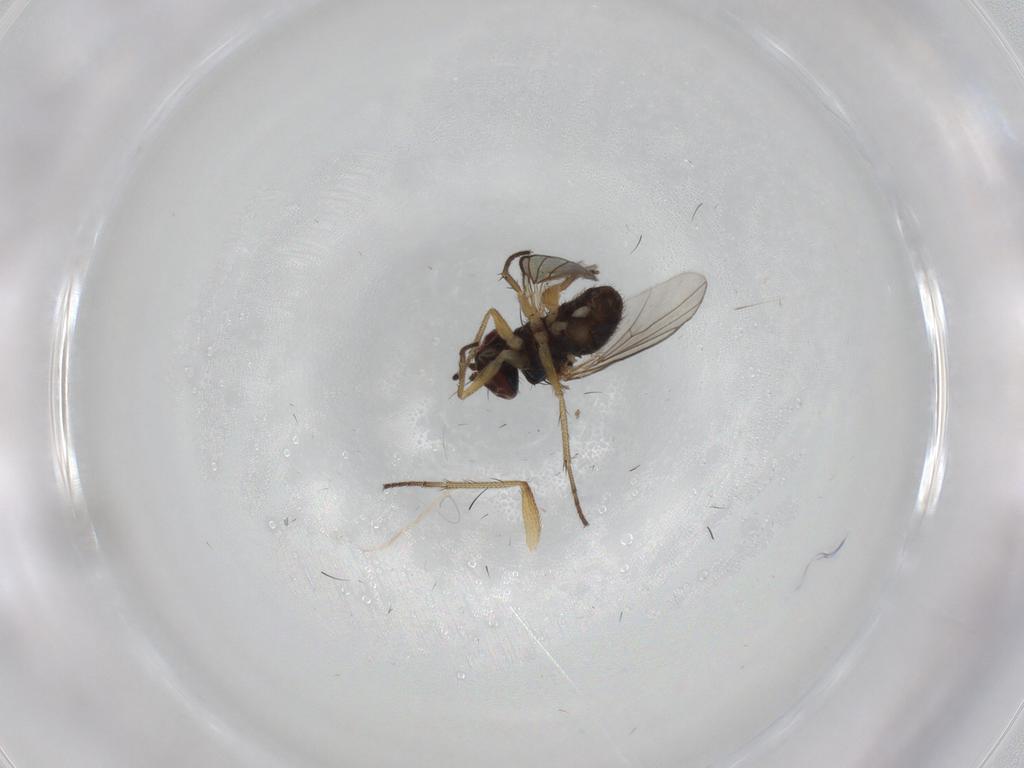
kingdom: Animalia
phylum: Arthropoda
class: Insecta
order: Diptera
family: Dolichopodidae
